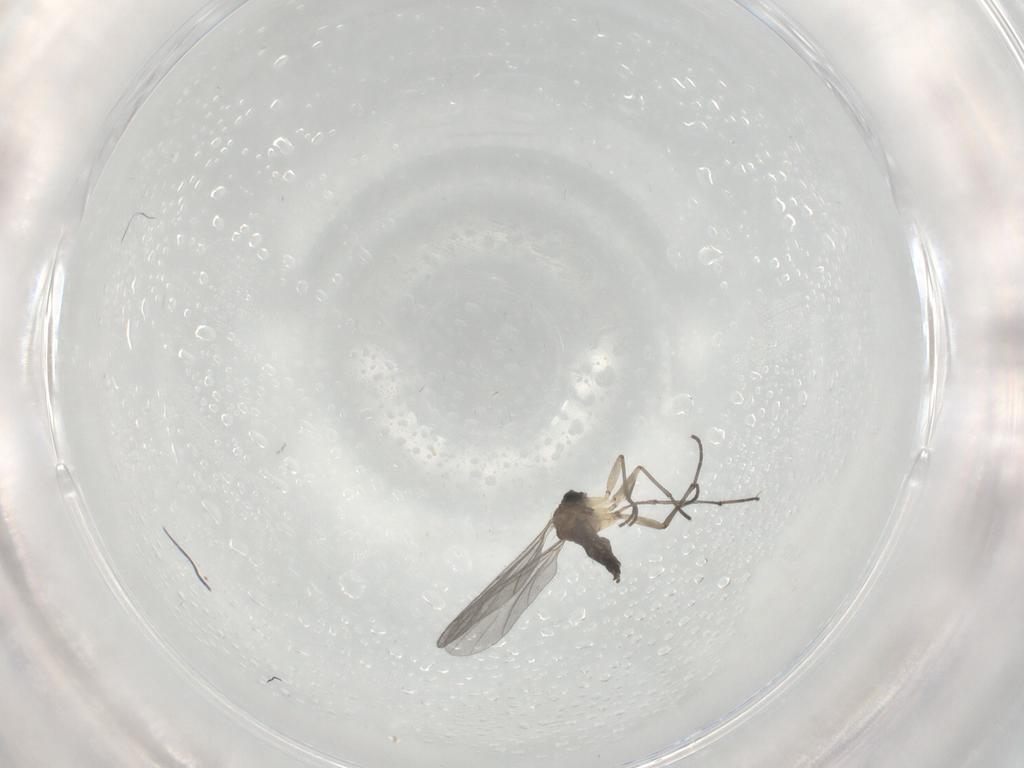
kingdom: Animalia
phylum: Arthropoda
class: Insecta
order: Diptera
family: Sciaridae
